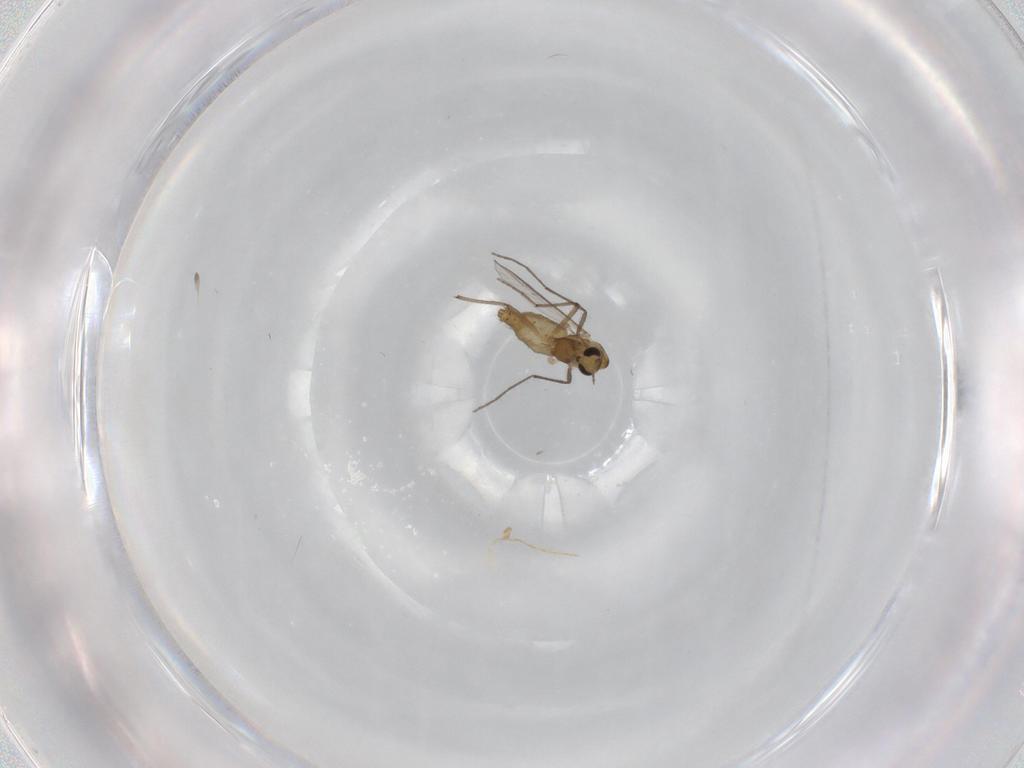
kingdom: Animalia
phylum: Arthropoda
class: Insecta
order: Diptera
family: Chironomidae
